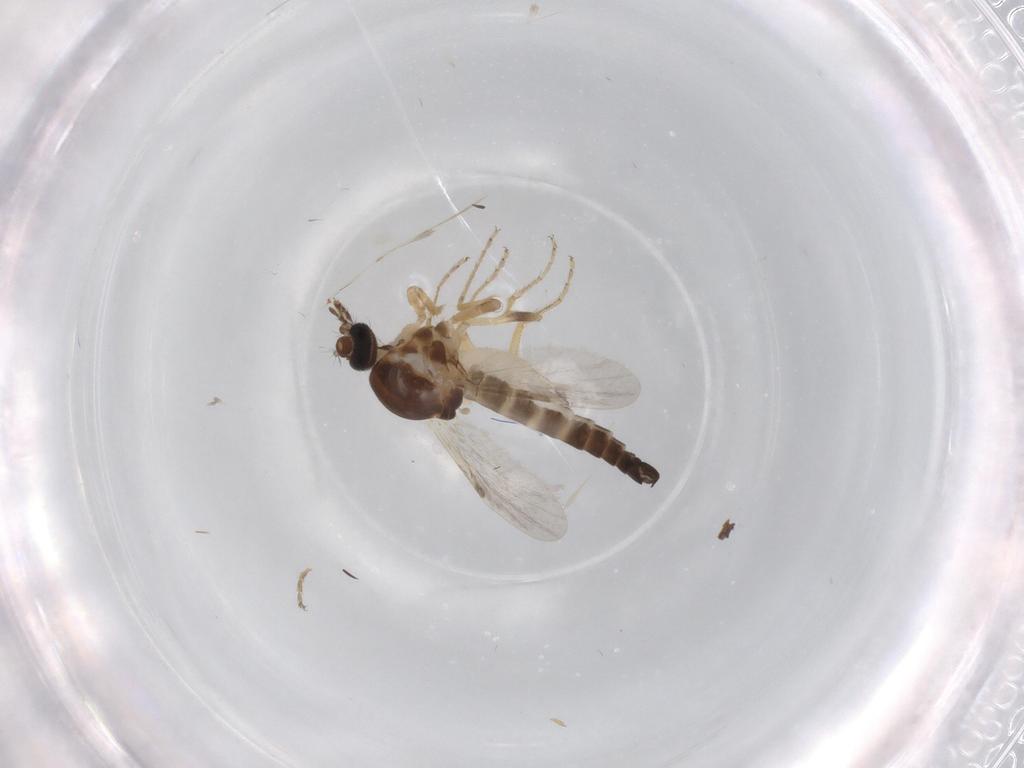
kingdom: Animalia
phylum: Arthropoda
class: Insecta
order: Diptera
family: Ceratopogonidae
